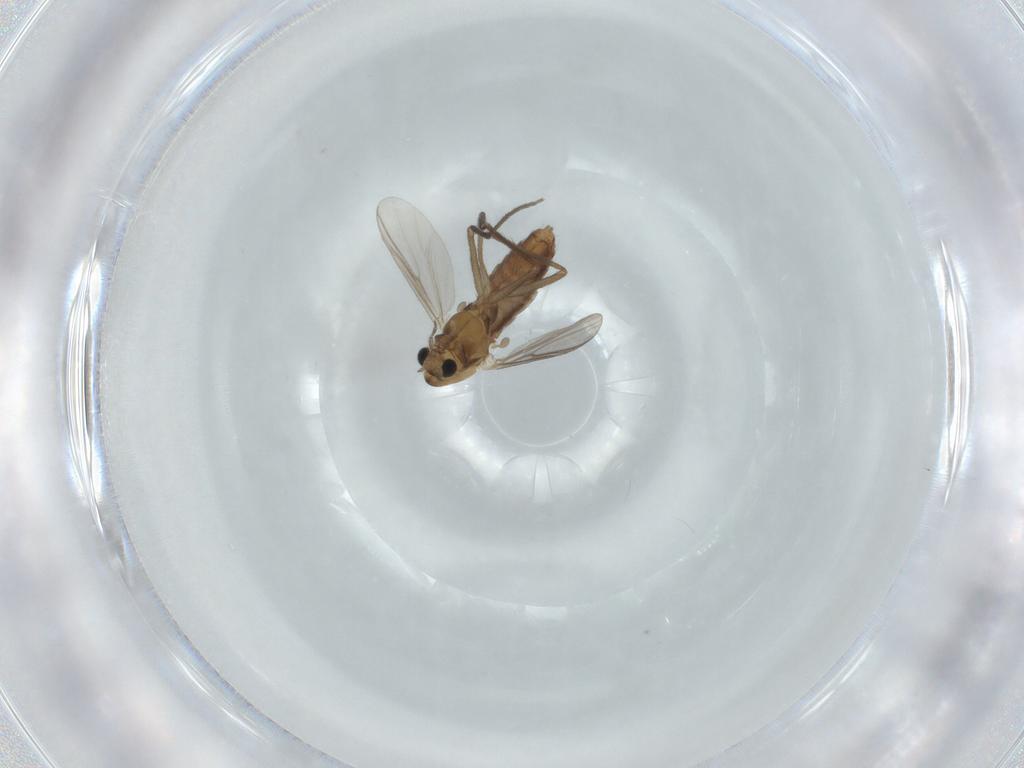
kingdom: Animalia
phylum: Arthropoda
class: Insecta
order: Diptera
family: Chironomidae
